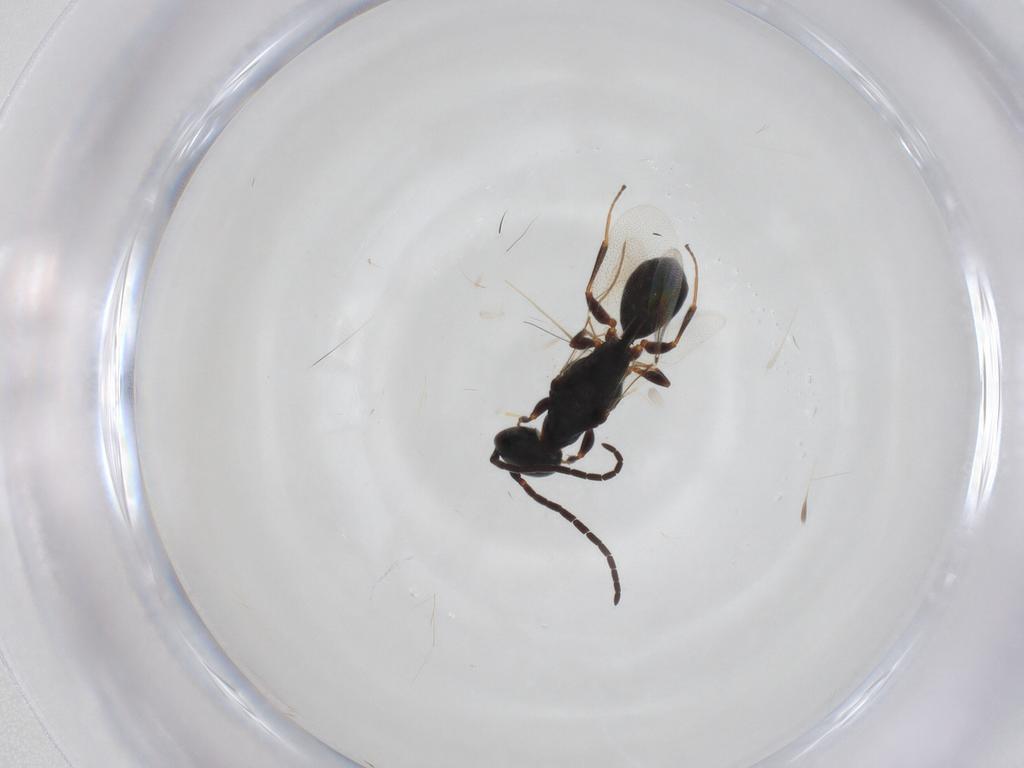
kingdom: Animalia
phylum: Arthropoda
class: Insecta
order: Hymenoptera
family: Bethylidae
